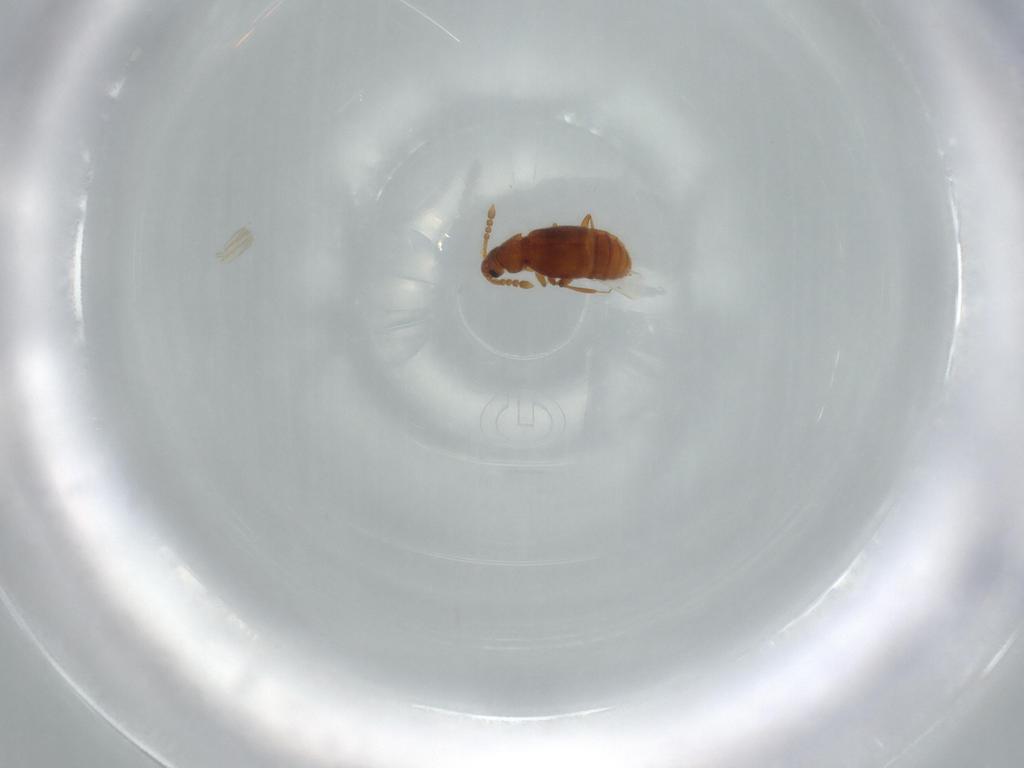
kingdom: Animalia
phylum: Arthropoda
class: Insecta
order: Coleoptera
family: Staphylinidae
